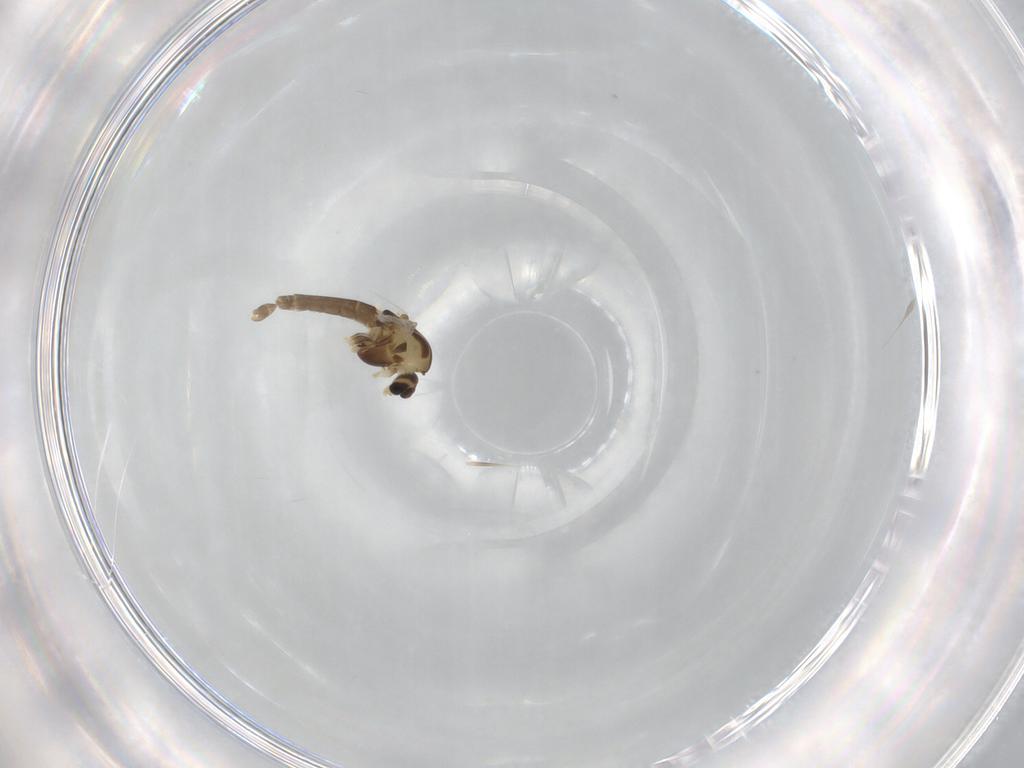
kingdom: Animalia
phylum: Arthropoda
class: Insecta
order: Diptera
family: Chironomidae
